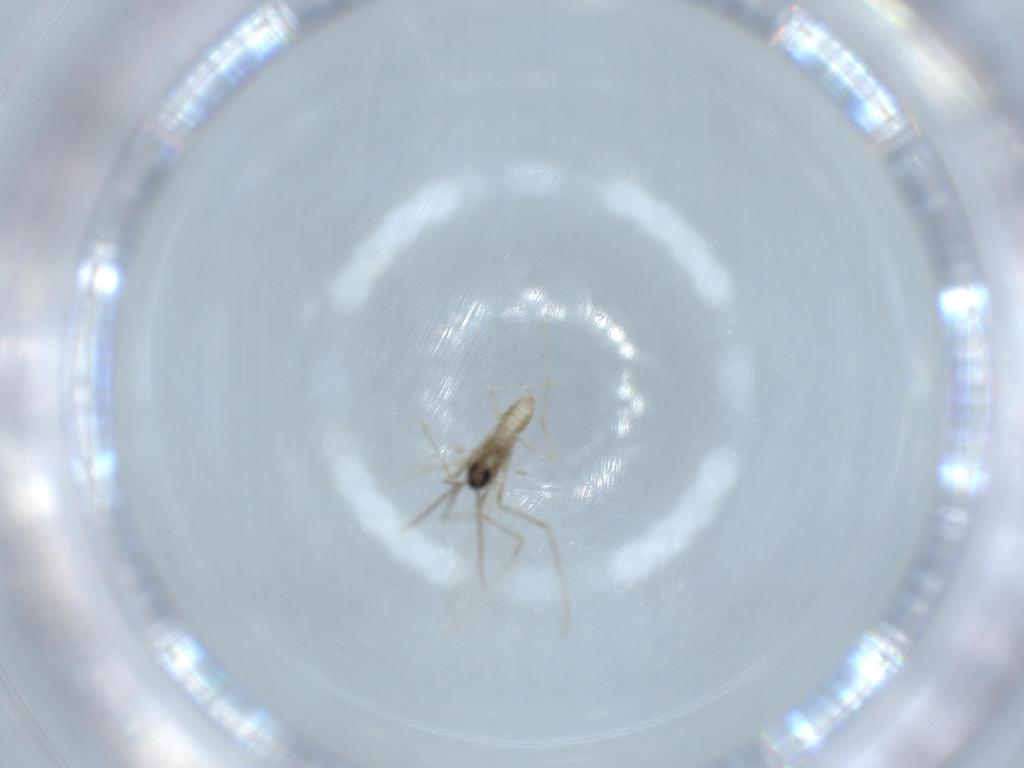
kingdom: Animalia
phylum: Arthropoda
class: Insecta
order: Diptera
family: Cecidomyiidae
